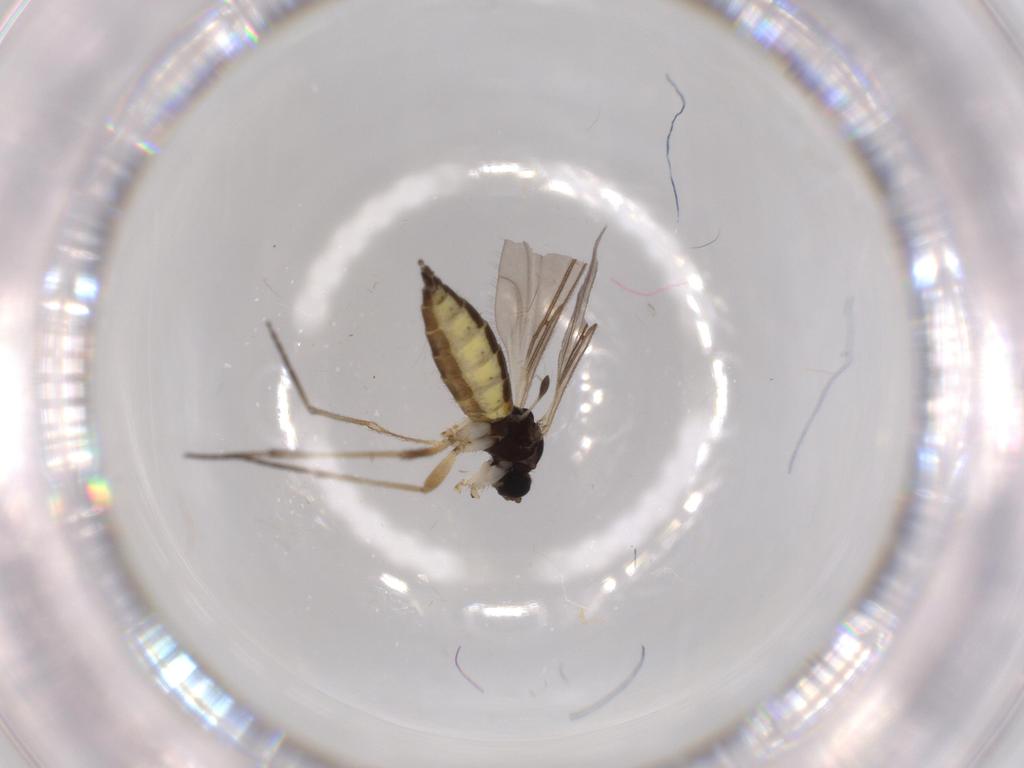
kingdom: Animalia
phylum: Arthropoda
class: Insecta
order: Diptera
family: Sciaridae
